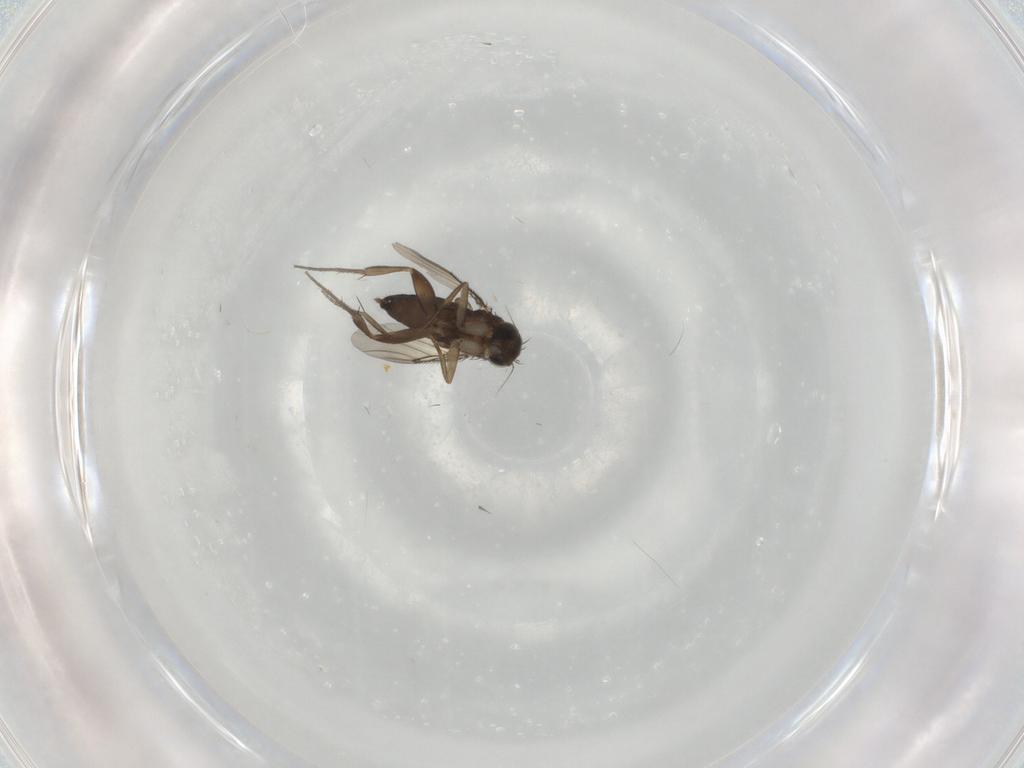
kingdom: Animalia
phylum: Arthropoda
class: Insecta
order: Diptera
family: Phoridae
